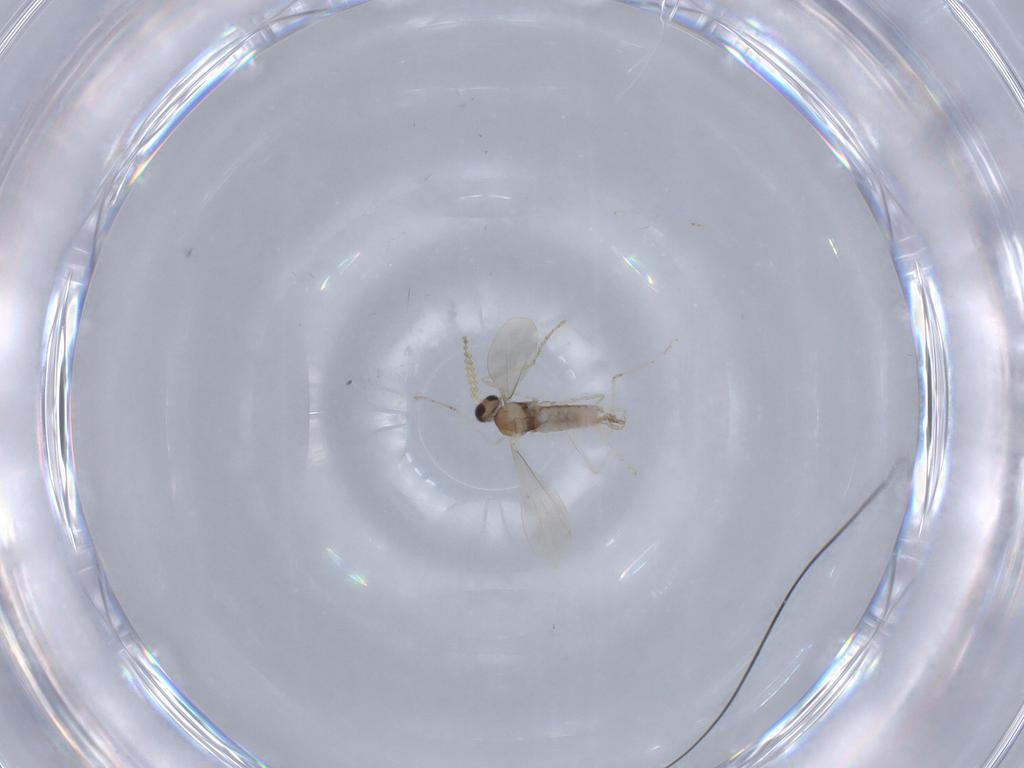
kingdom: Animalia
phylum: Arthropoda
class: Insecta
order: Diptera
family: Cecidomyiidae
